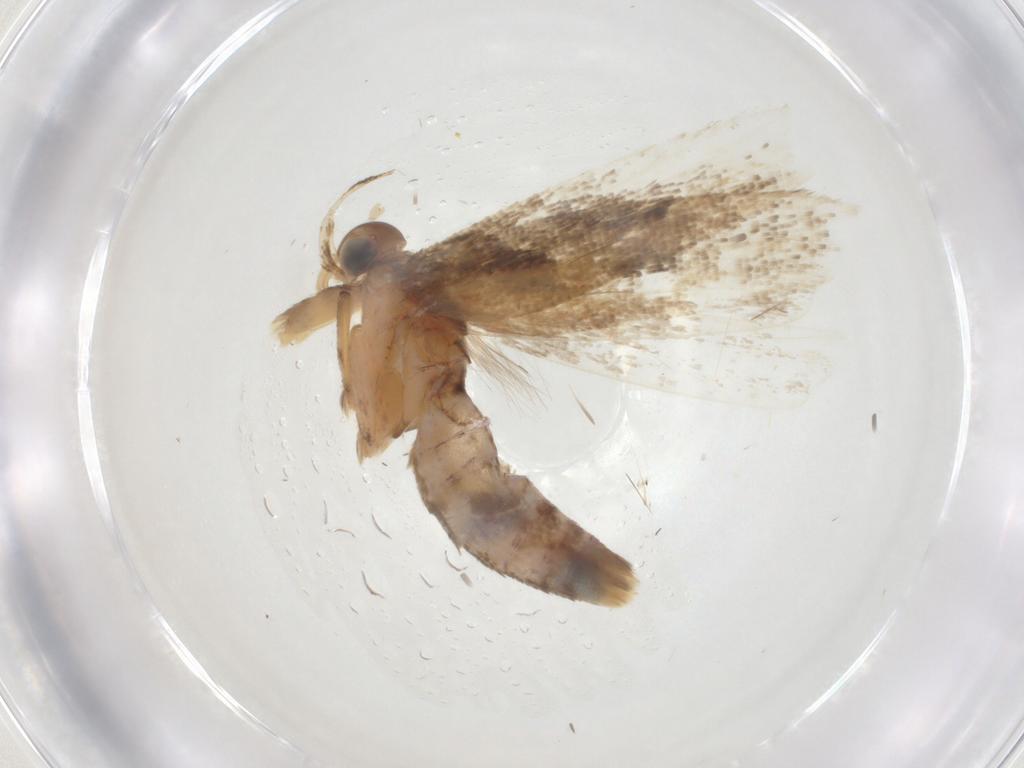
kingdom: Animalia
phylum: Arthropoda
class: Insecta
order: Lepidoptera
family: Gelechiidae
